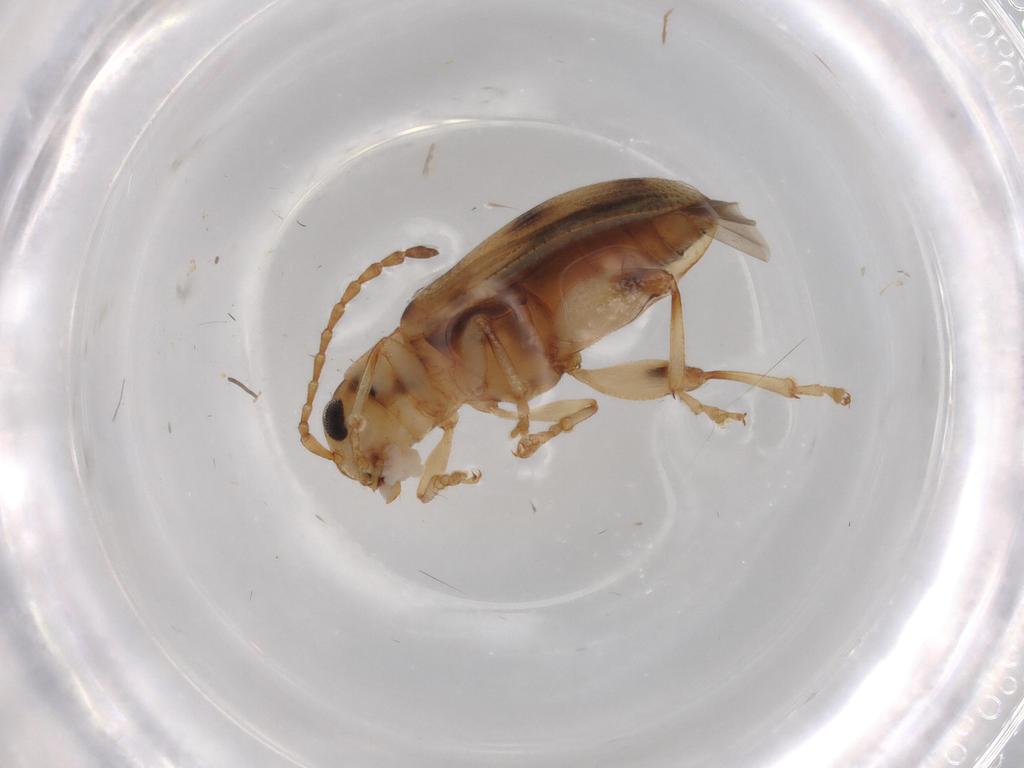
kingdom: Animalia
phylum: Arthropoda
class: Insecta
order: Coleoptera
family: Chrysomelidae
